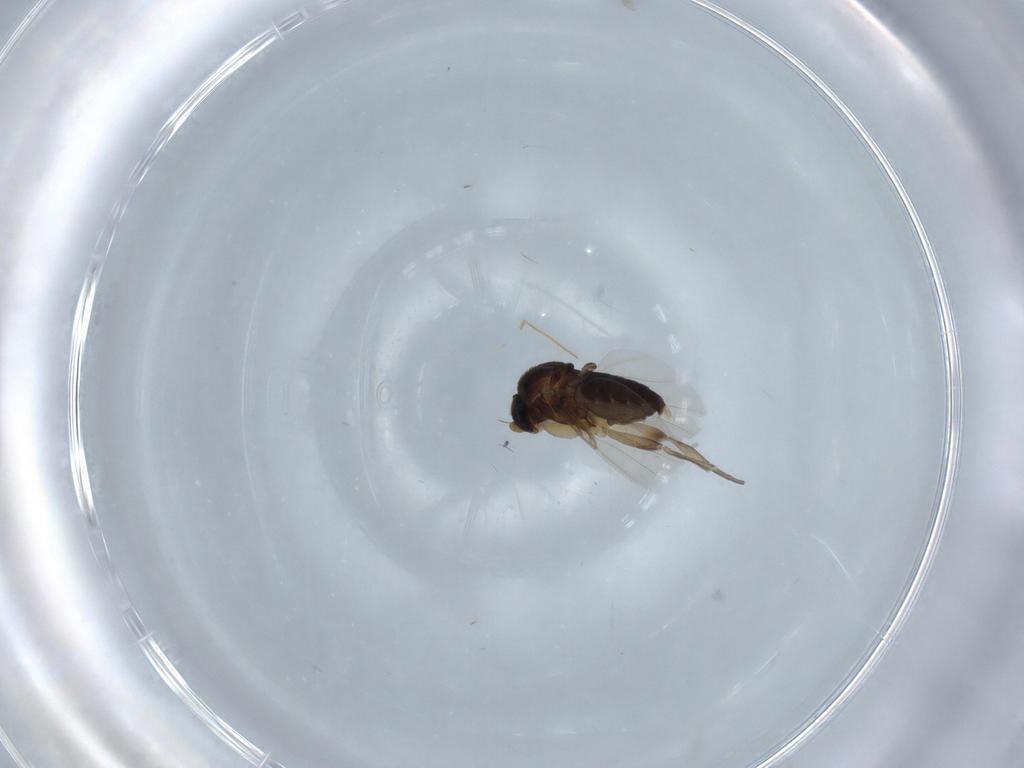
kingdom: Animalia
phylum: Arthropoda
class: Insecta
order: Diptera
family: Phoridae
